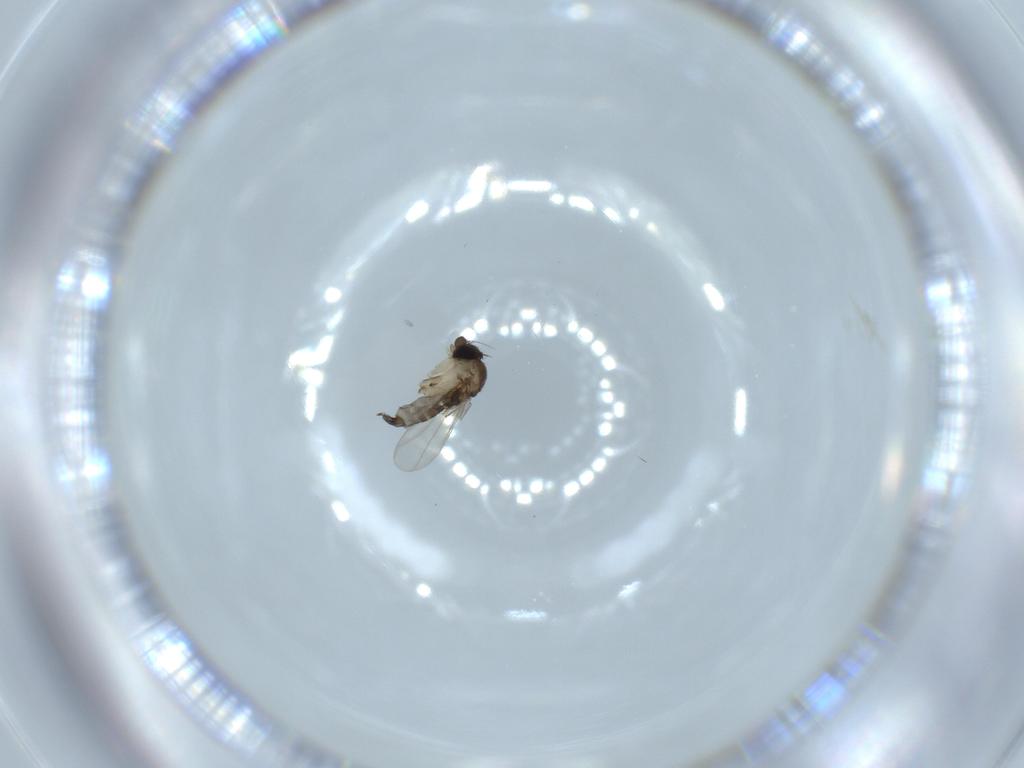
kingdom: Animalia
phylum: Arthropoda
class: Insecta
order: Diptera
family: Phoridae
